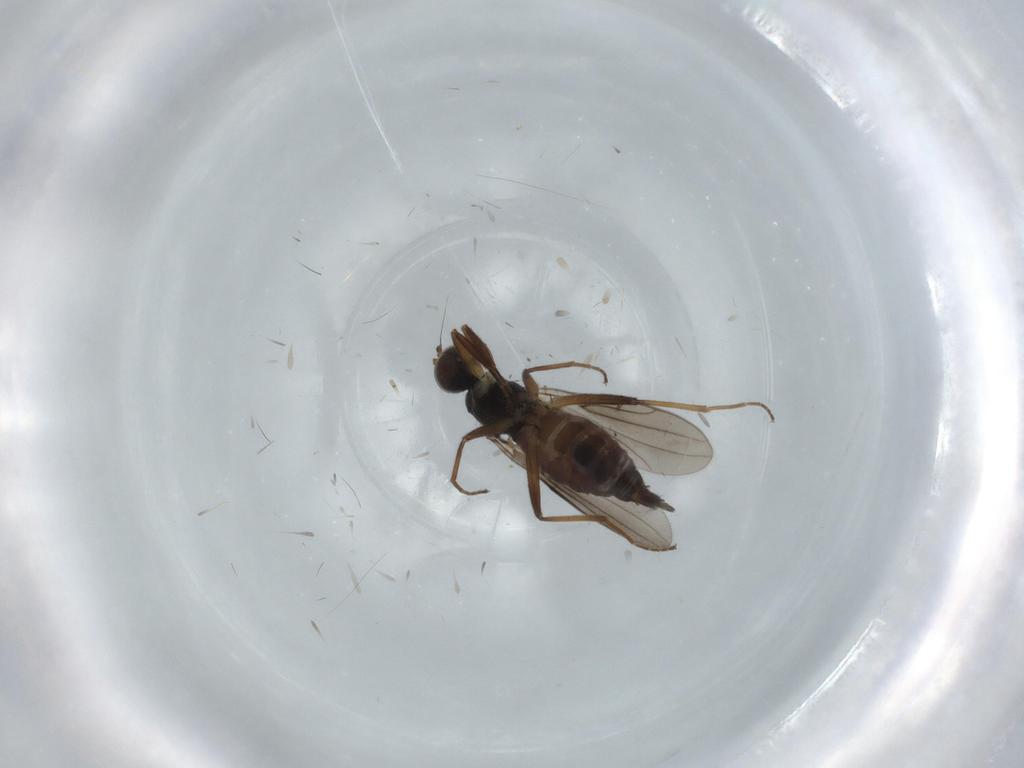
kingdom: Animalia
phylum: Arthropoda
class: Insecta
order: Diptera
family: Hybotidae
